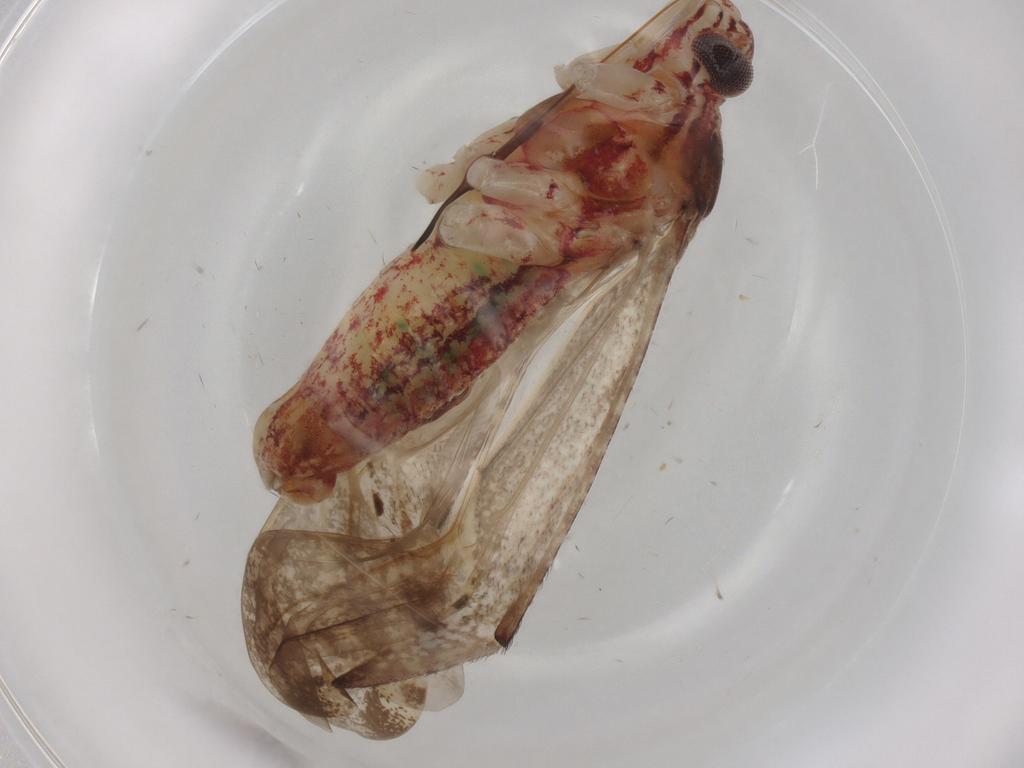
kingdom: Animalia
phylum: Arthropoda
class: Insecta
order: Hemiptera
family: Miridae
